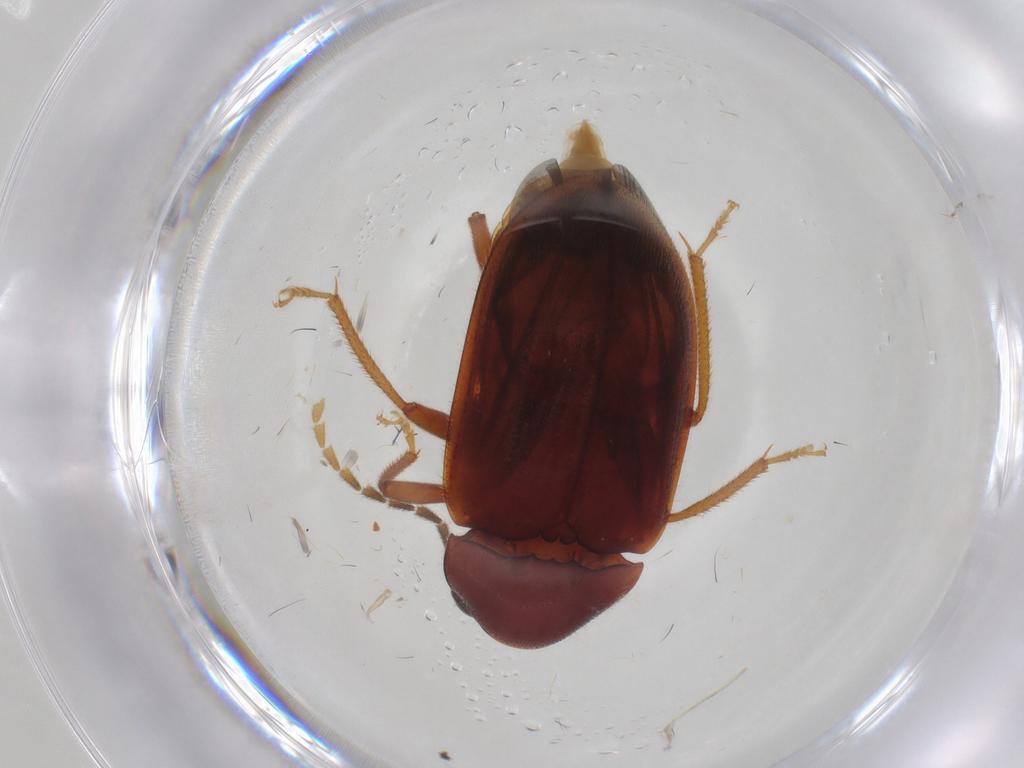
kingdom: Animalia
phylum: Arthropoda
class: Insecta
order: Coleoptera
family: Ptilodactylidae
